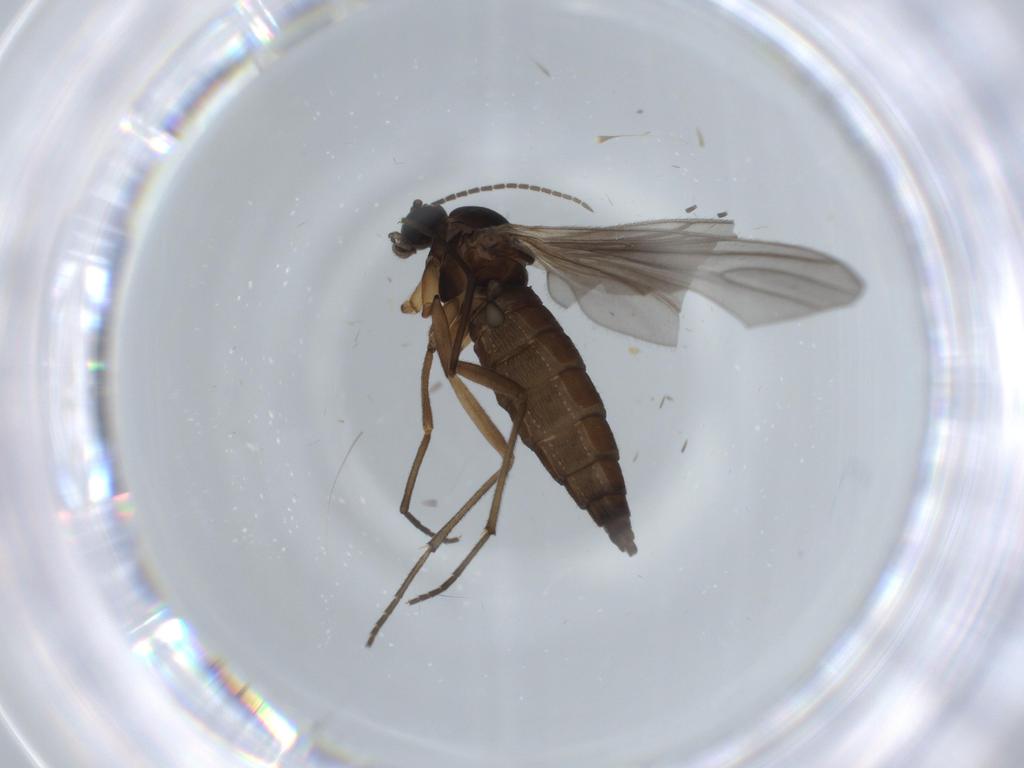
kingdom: Animalia
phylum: Arthropoda
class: Insecta
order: Diptera
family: Sciaridae
